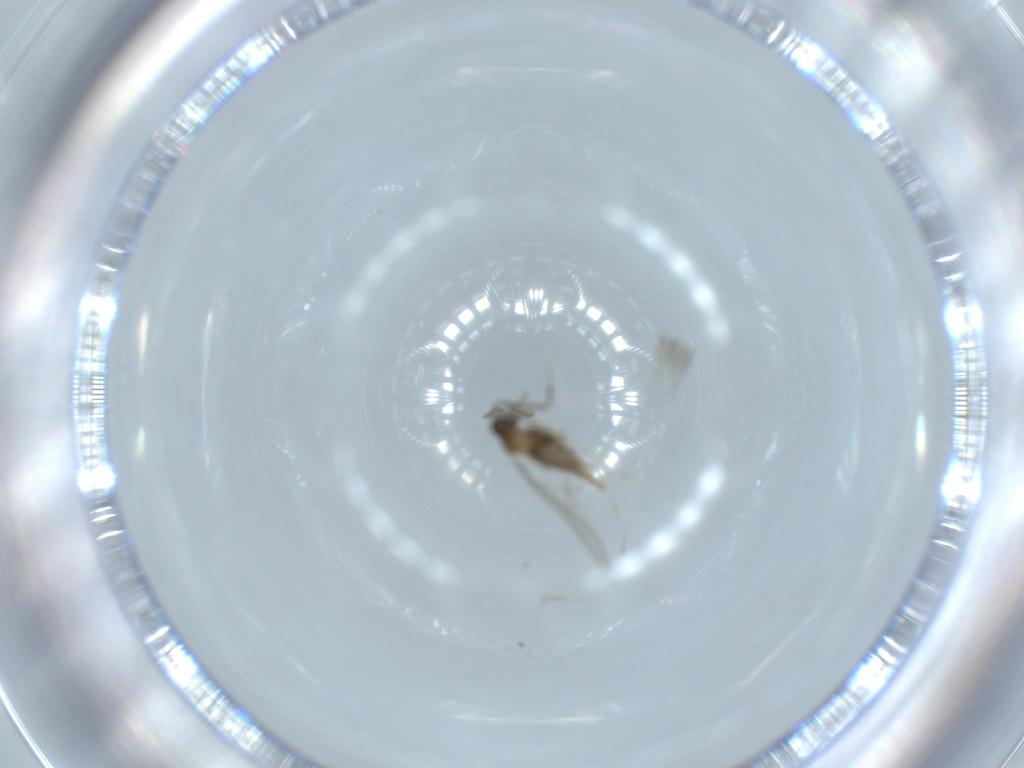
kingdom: Animalia
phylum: Arthropoda
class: Insecta
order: Diptera
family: Cecidomyiidae
